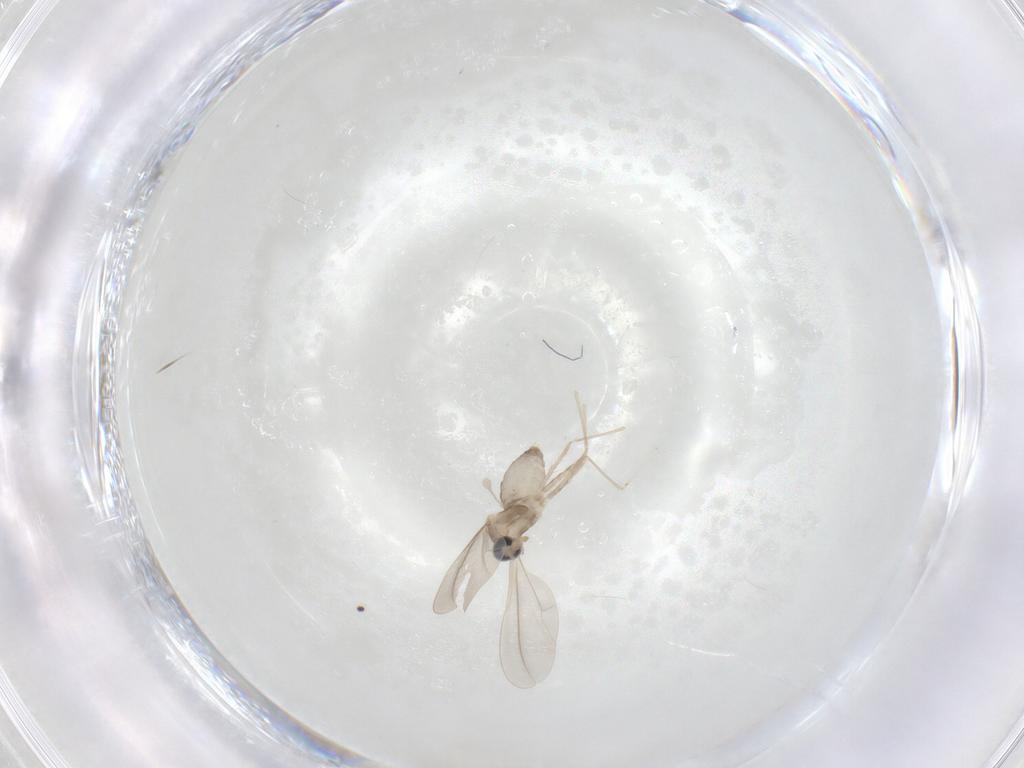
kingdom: Animalia
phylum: Arthropoda
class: Insecta
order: Diptera
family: Cecidomyiidae
